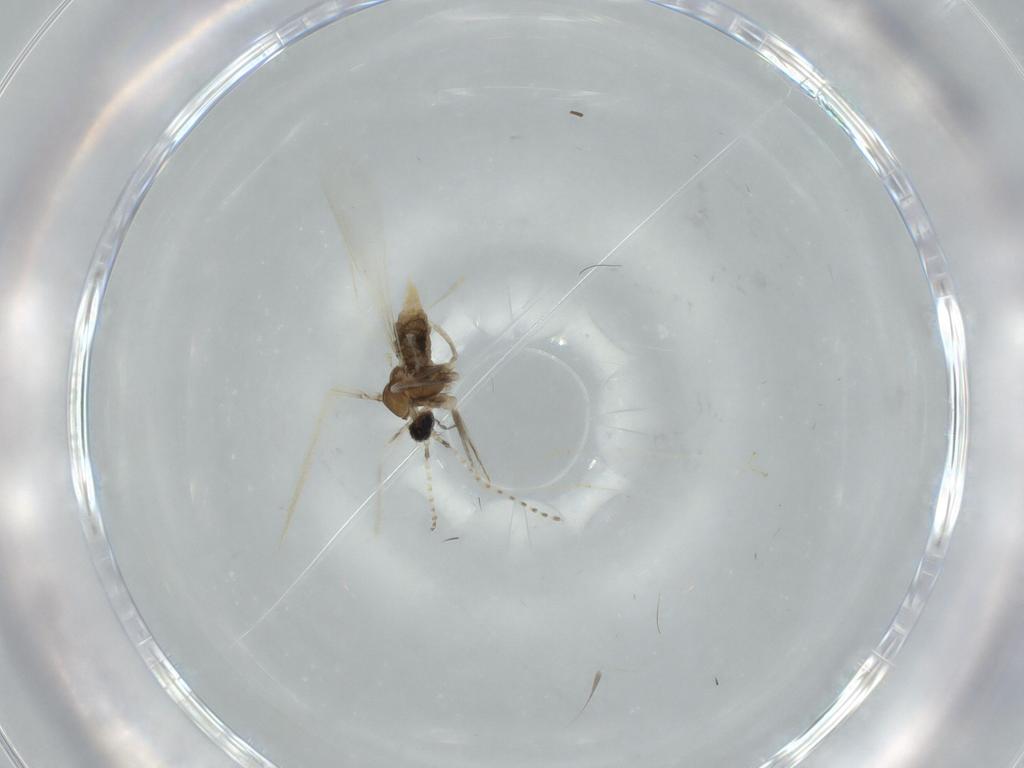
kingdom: Animalia
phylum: Arthropoda
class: Insecta
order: Diptera
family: Cecidomyiidae
